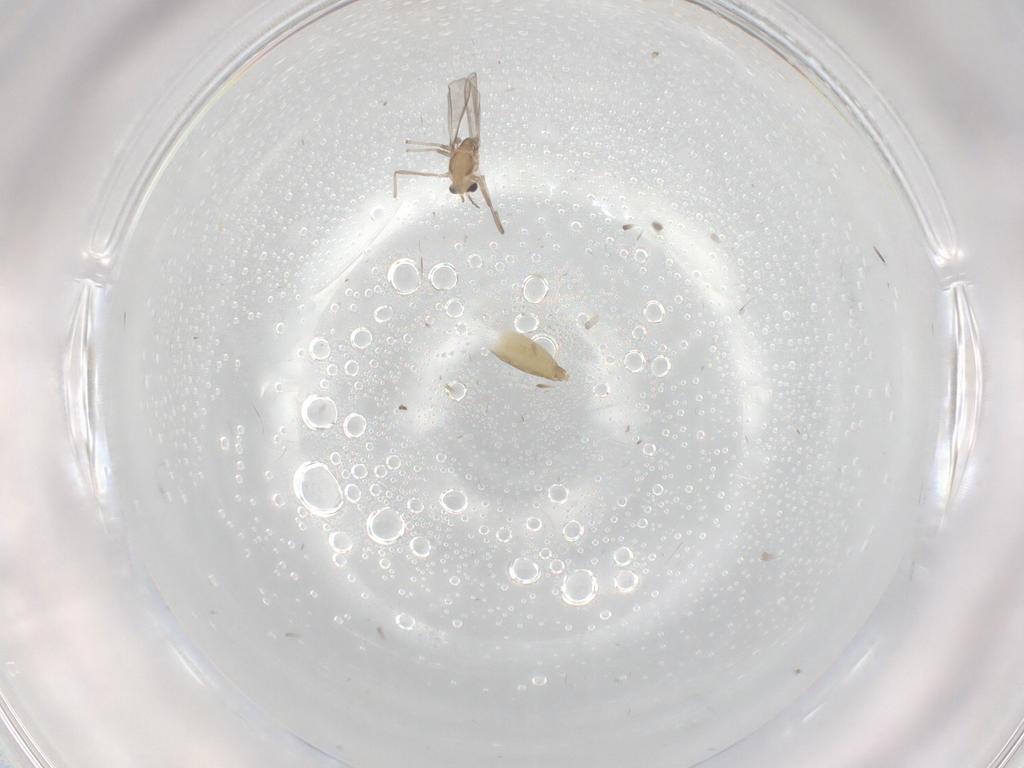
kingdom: Animalia
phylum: Arthropoda
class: Insecta
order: Diptera
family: Chironomidae
